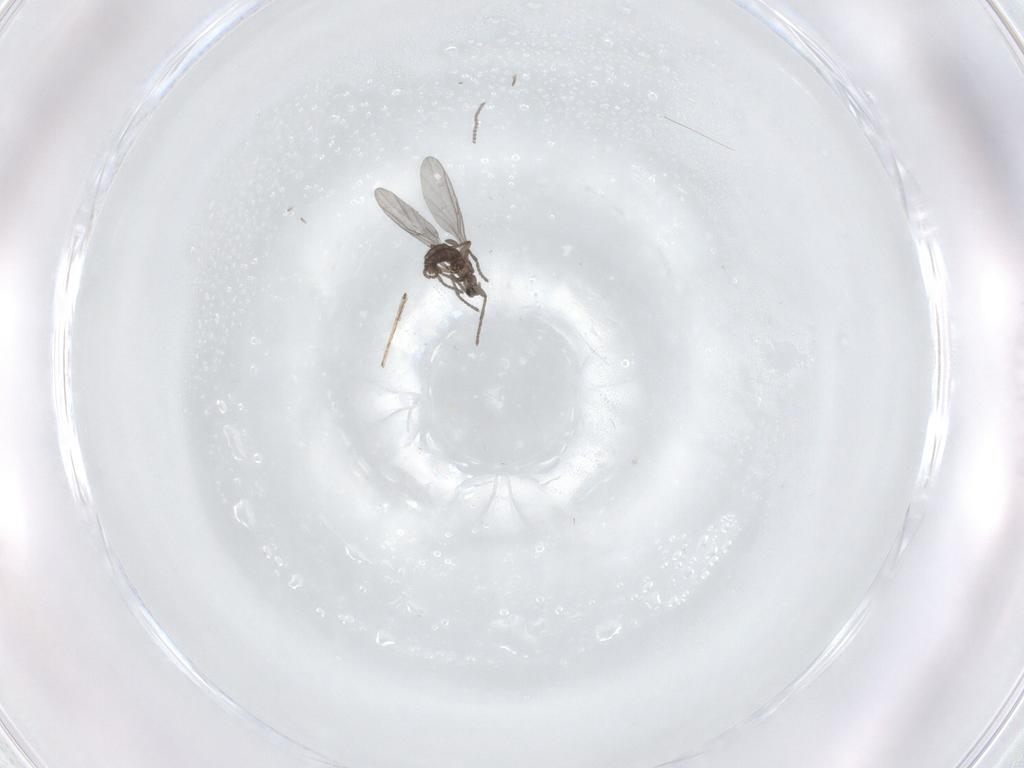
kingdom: Animalia
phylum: Arthropoda
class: Insecta
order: Diptera
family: Sciaridae
